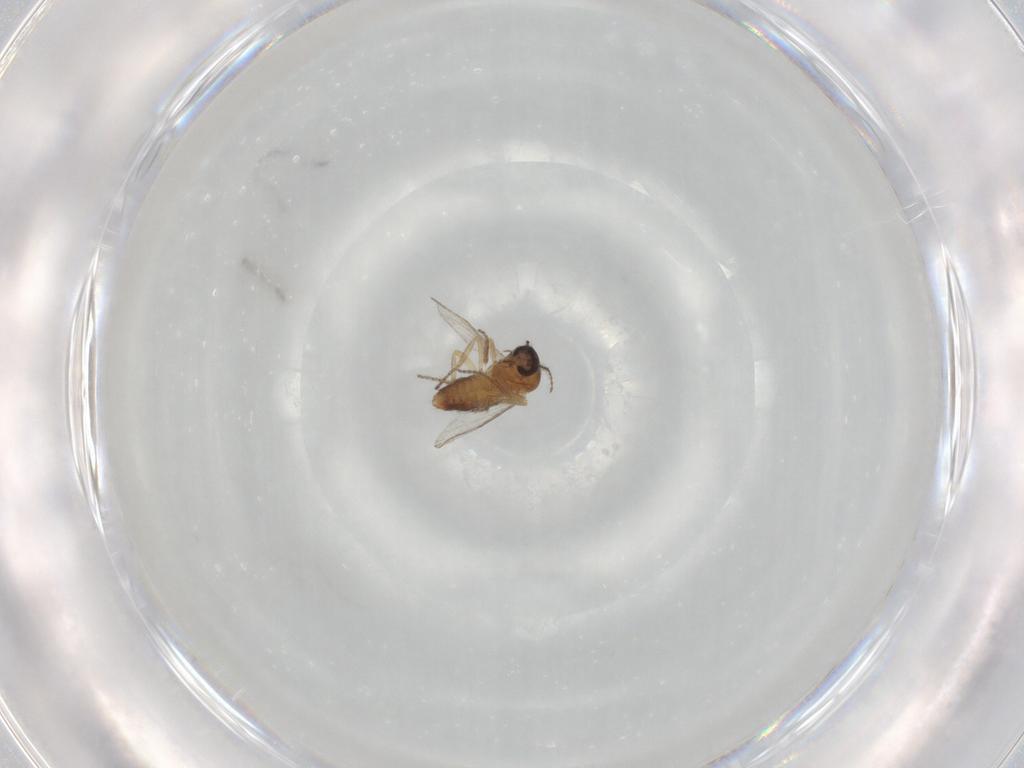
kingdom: Animalia
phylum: Arthropoda
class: Insecta
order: Diptera
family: Ceratopogonidae
